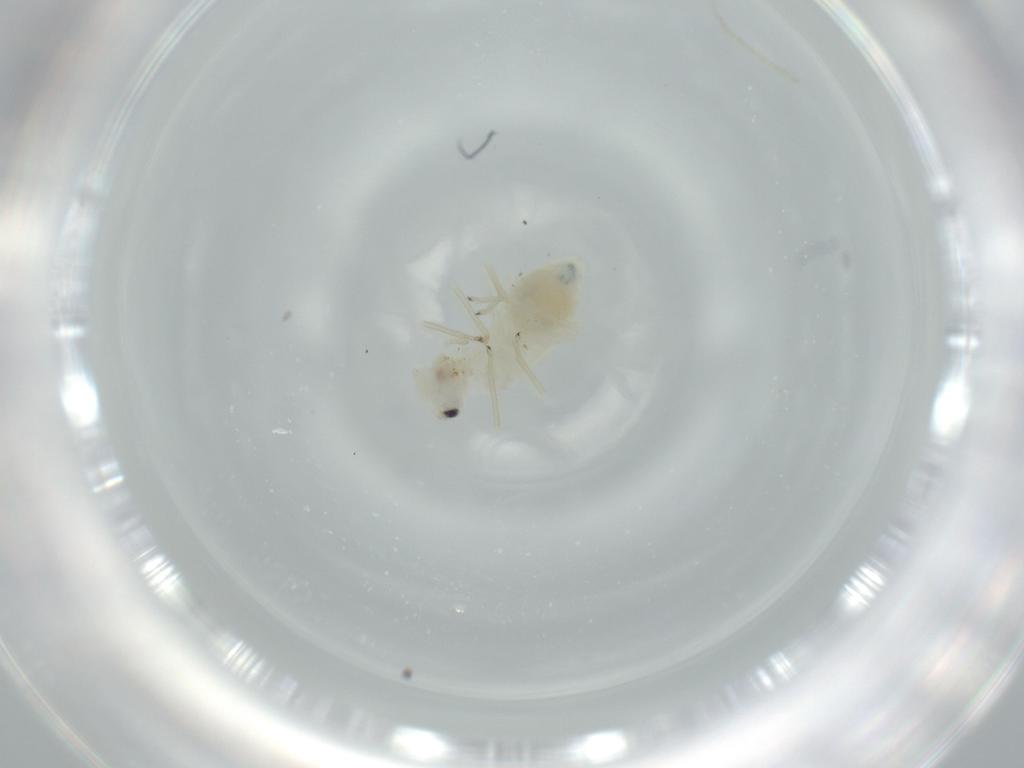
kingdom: Animalia
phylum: Arthropoda
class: Insecta
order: Psocodea
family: Caeciliusidae
